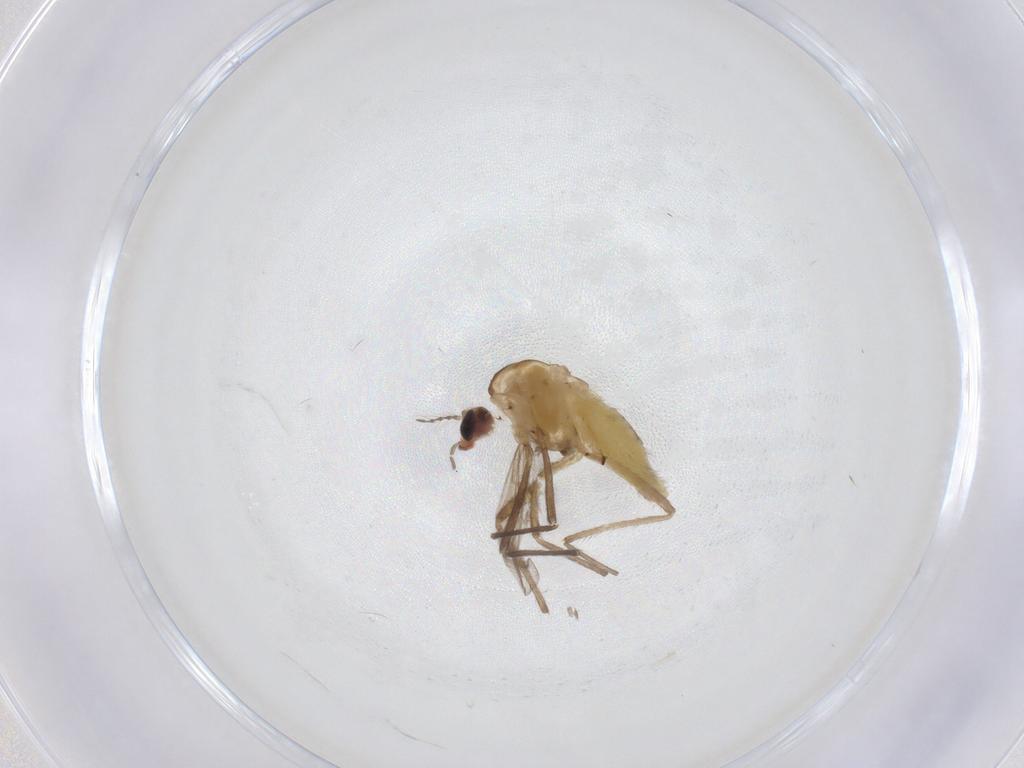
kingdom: Animalia
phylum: Arthropoda
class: Insecta
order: Diptera
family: Chironomidae
